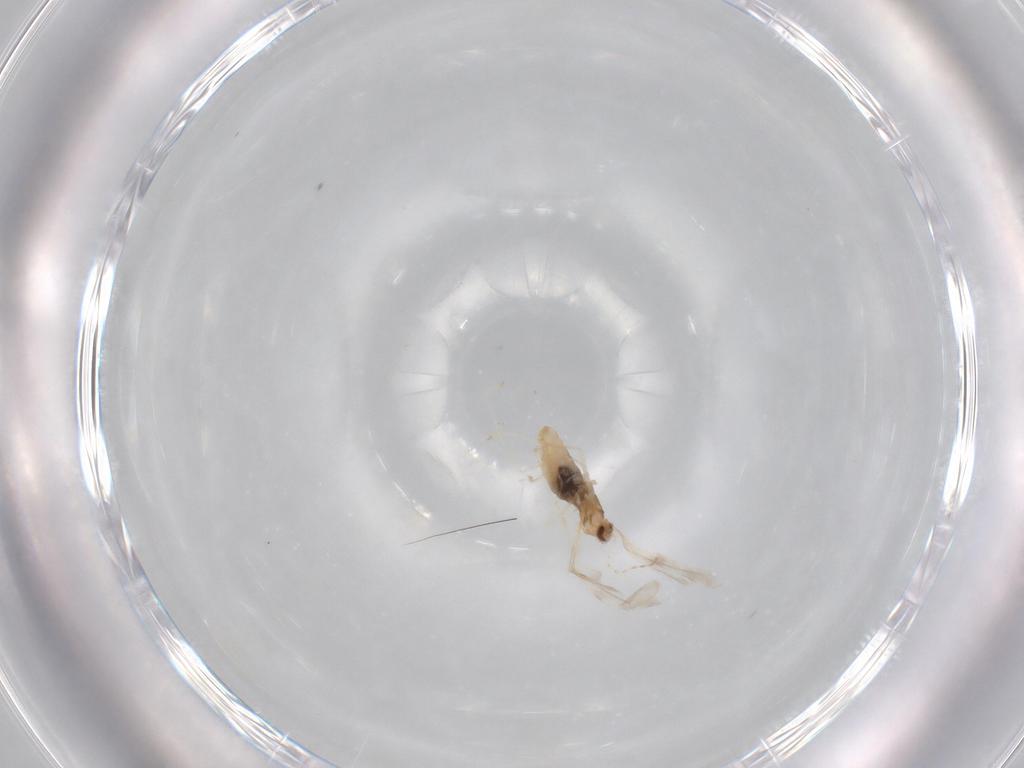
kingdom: Animalia
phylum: Arthropoda
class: Insecta
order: Diptera
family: Cecidomyiidae
